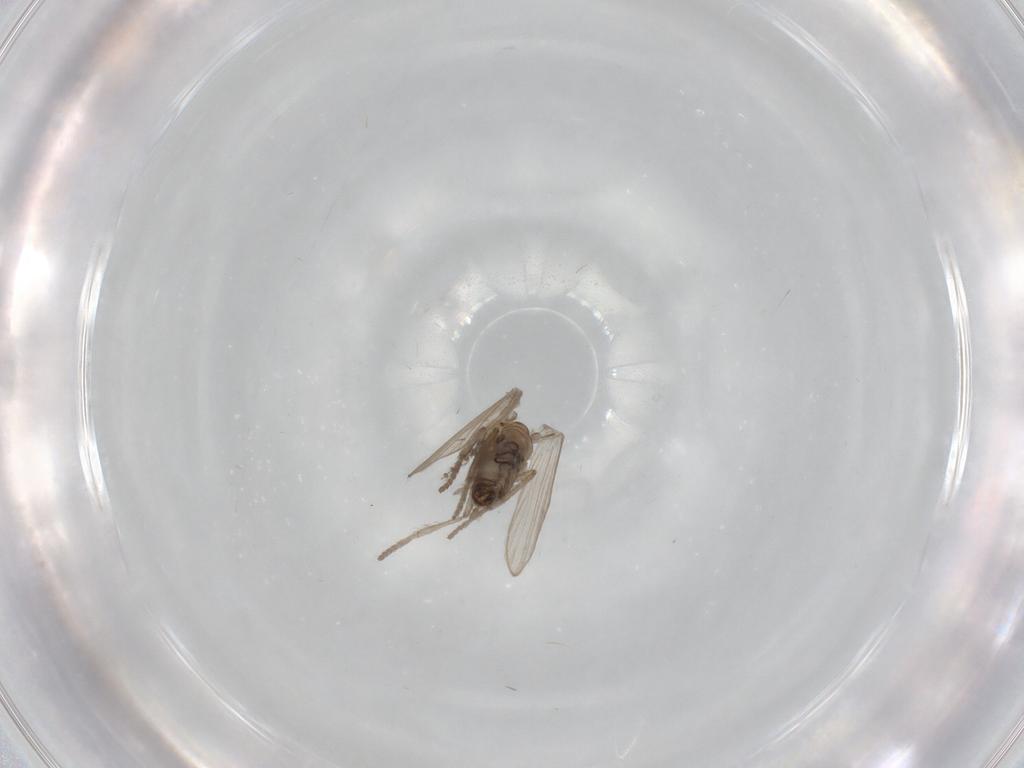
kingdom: Animalia
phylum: Arthropoda
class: Insecta
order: Diptera
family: Psychodidae
